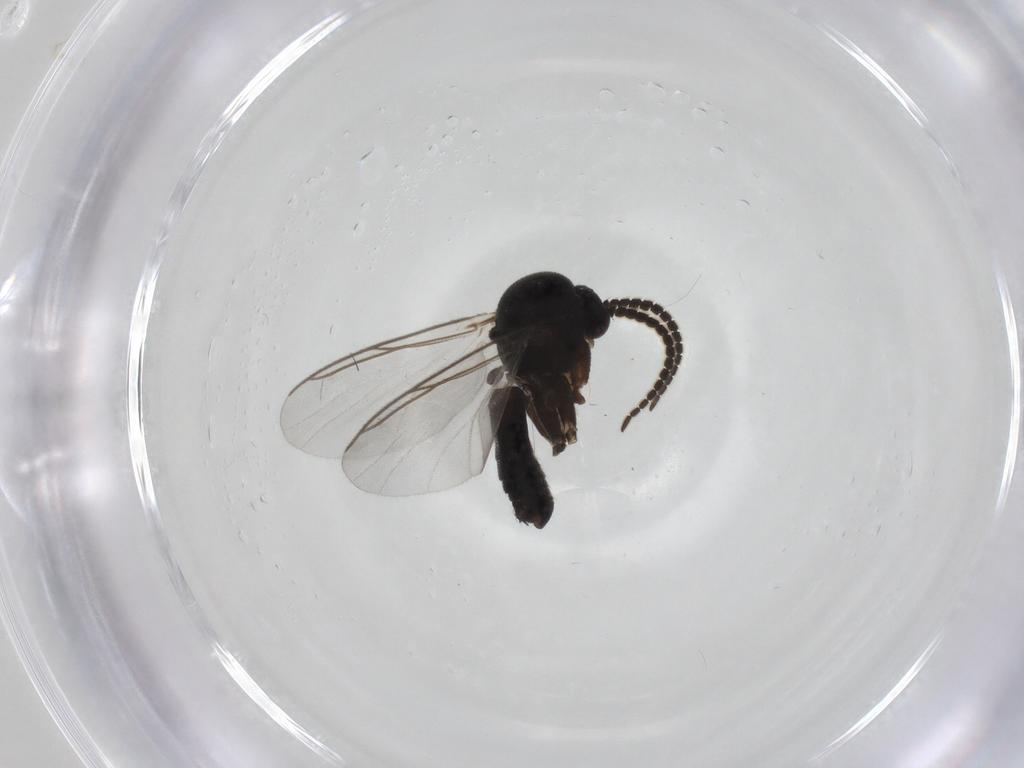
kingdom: Animalia
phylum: Arthropoda
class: Insecta
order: Diptera
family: Mycetophilidae
